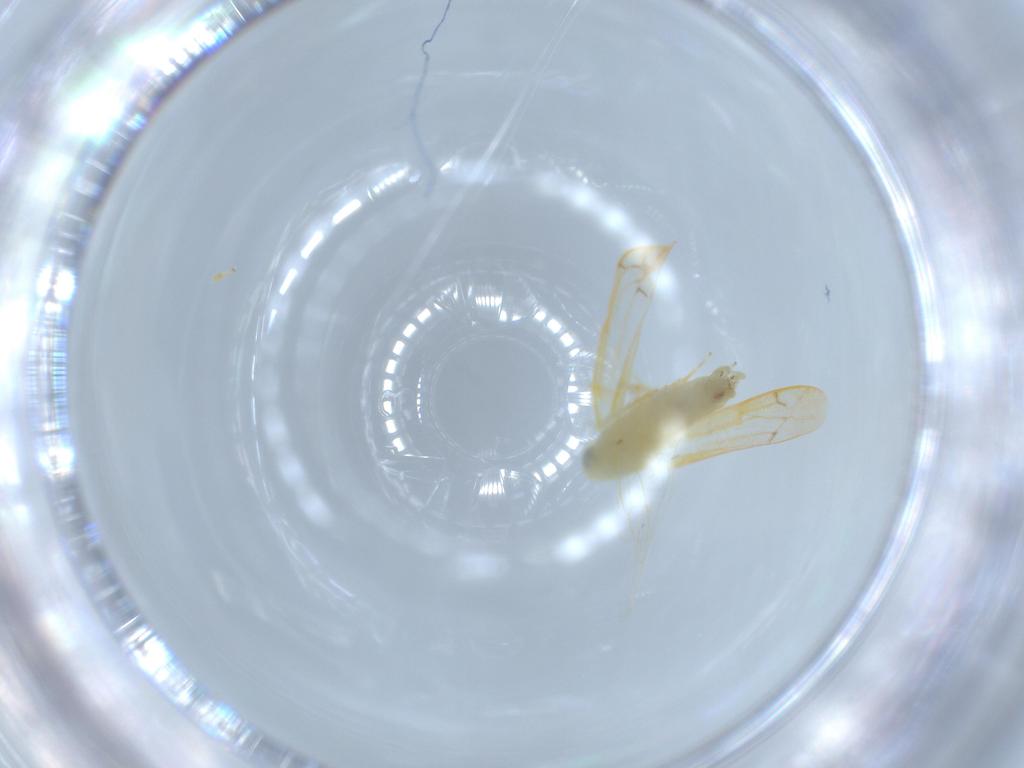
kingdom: Animalia
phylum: Arthropoda
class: Insecta
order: Hemiptera
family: Cicadellidae
